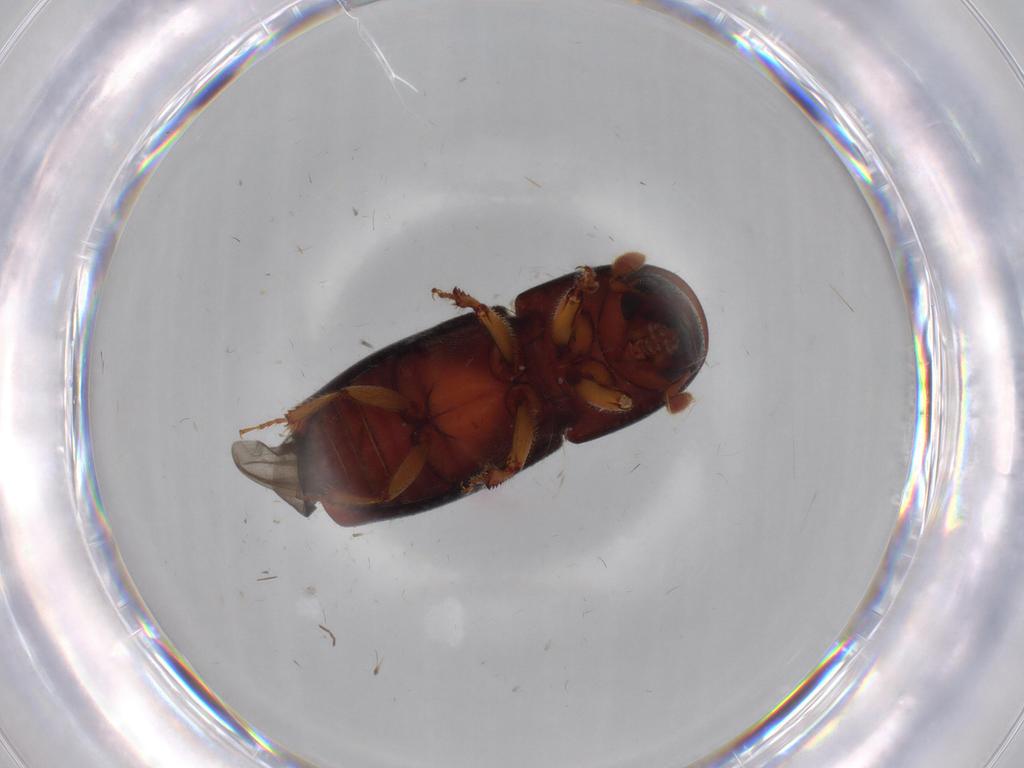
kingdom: Animalia
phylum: Arthropoda
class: Insecta
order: Coleoptera
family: Curculionidae
